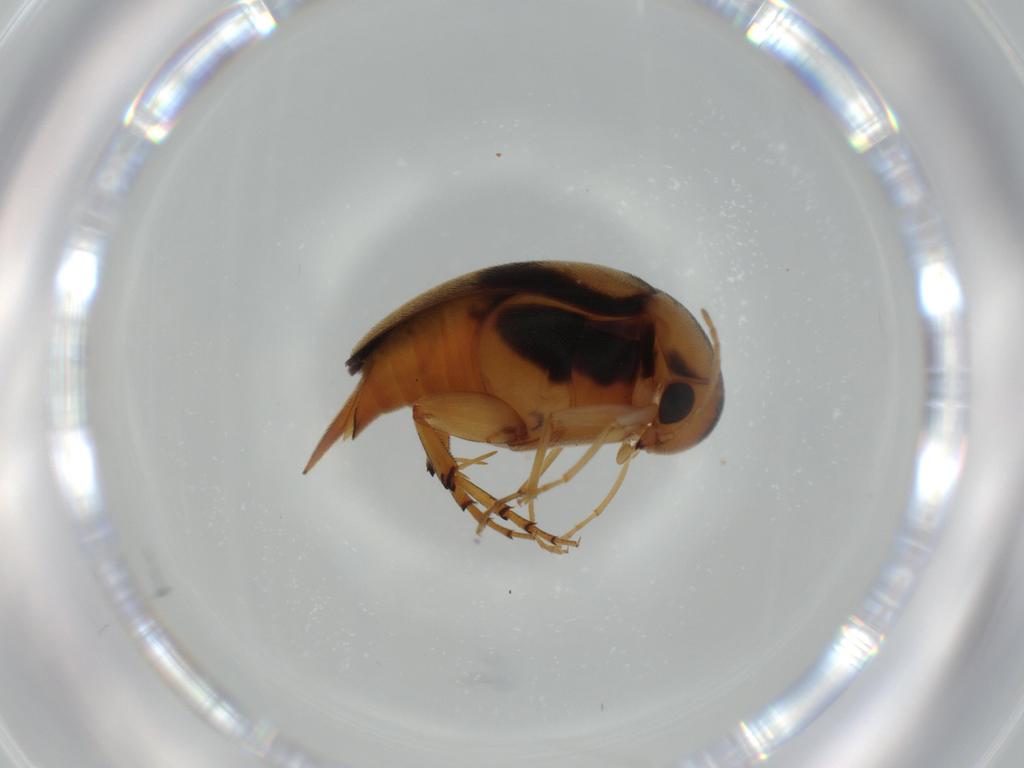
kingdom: Animalia
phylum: Arthropoda
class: Insecta
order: Coleoptera
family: Mordellidae
